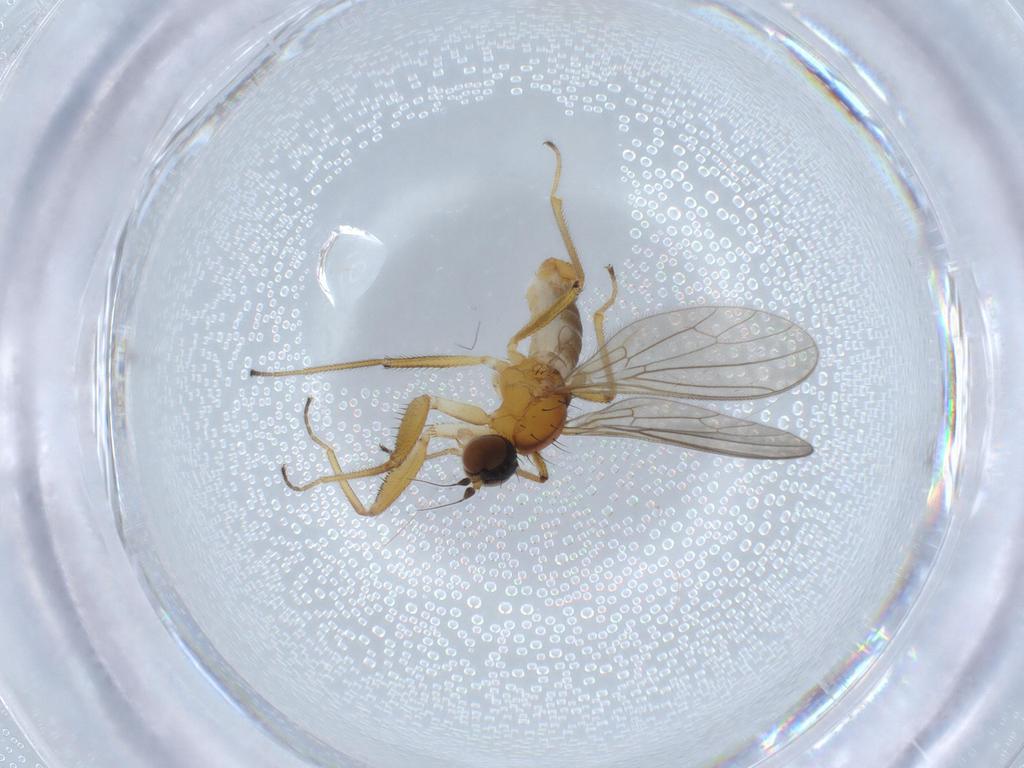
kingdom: Animalia
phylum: Arthropoda
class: Insecta
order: Diptera
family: Empididae
